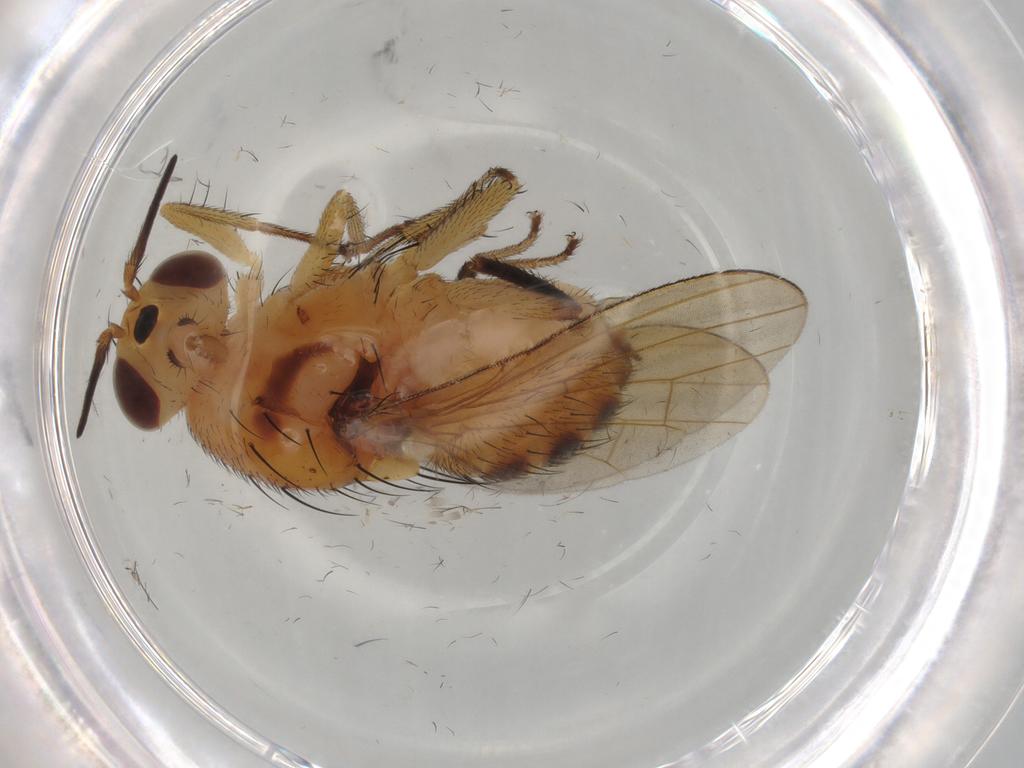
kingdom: Animalia
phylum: Arthropoda
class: Insecta
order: Diptera
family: Lauxaniidae
